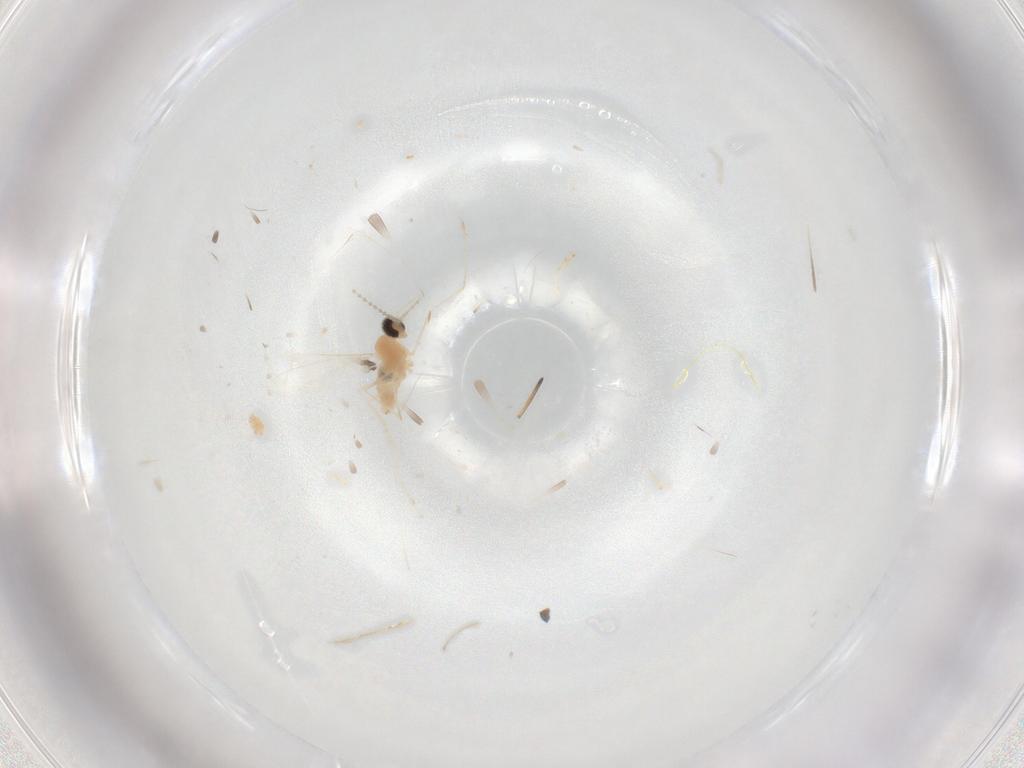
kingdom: Animalia
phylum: Arthropoda
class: Insecta
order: Diptera
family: Cecidomyiidae
